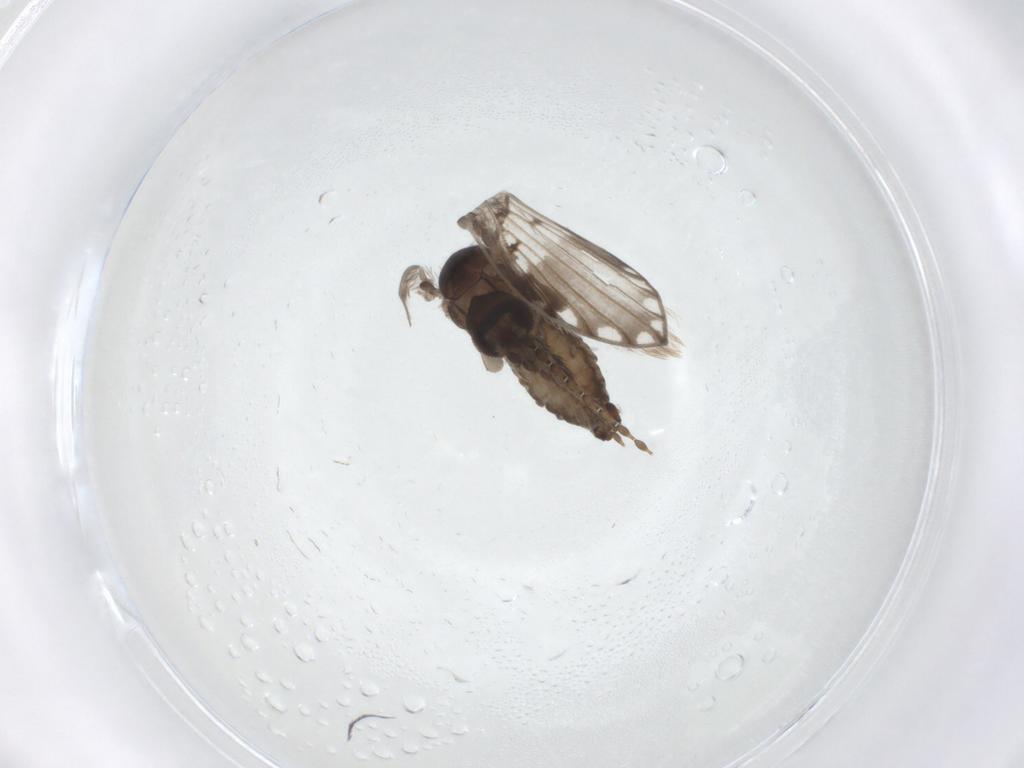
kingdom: Animalia
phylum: Arthropoda
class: Insecta
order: Diptera
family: Psychodidae
